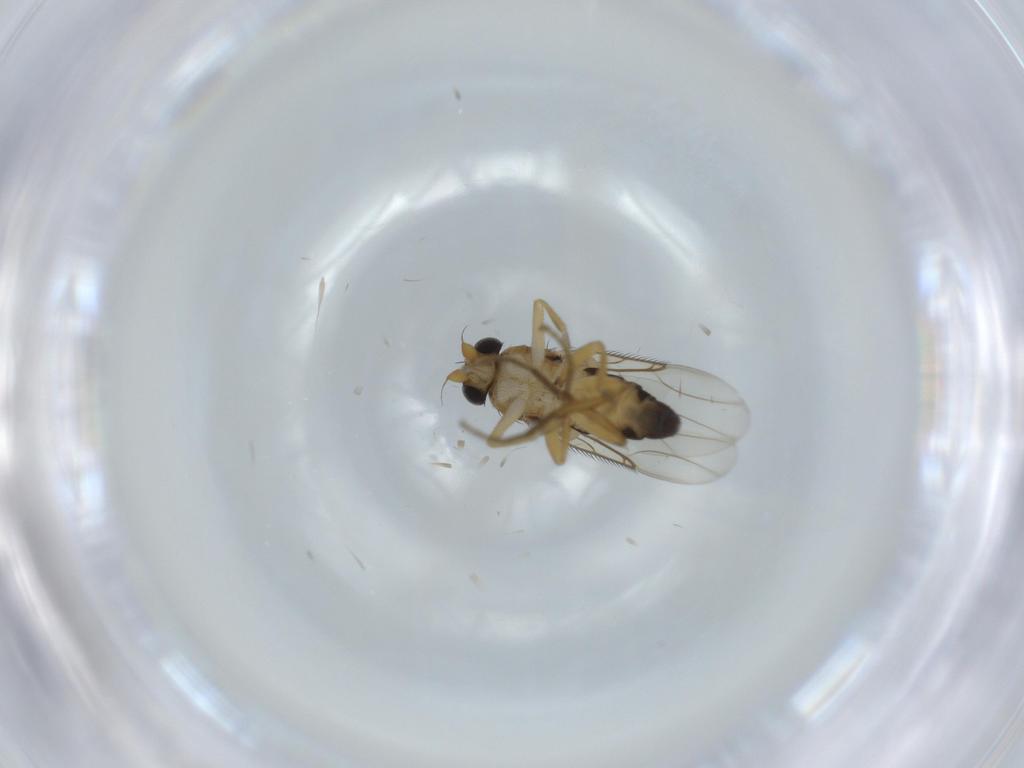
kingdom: Animalia
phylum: Arthropoda
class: Insecta
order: Diptera
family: Phoridae
